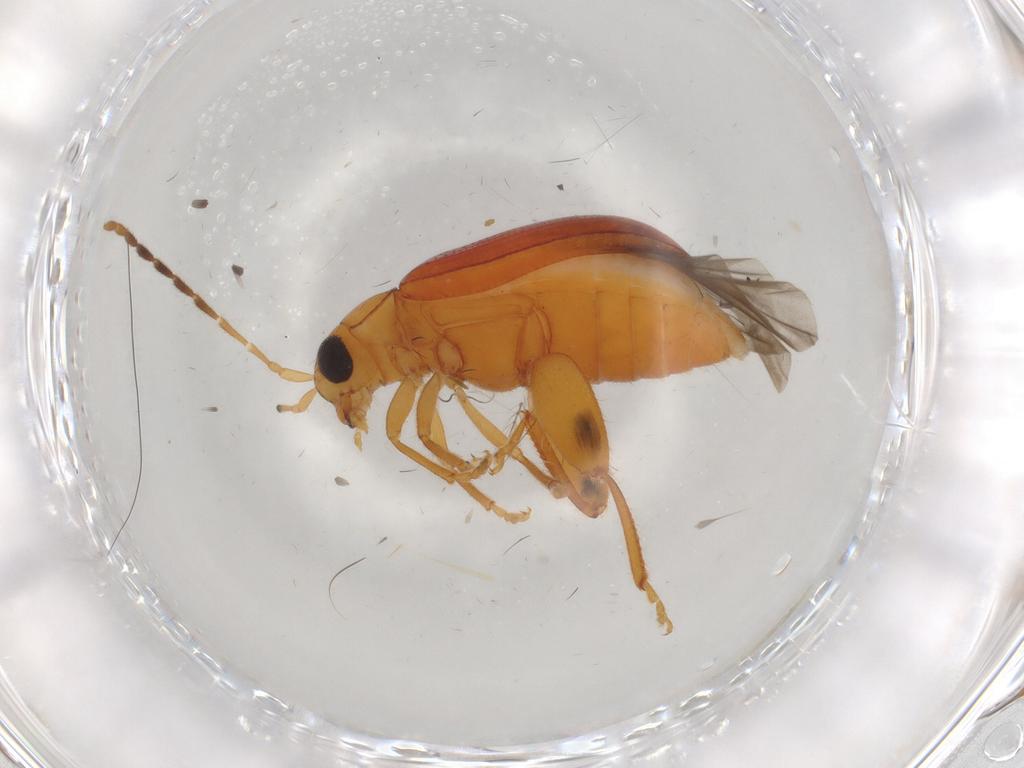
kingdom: Animalia
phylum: Arthropoda
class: Insecta
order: Coleoptera
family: Chrysomelidae
